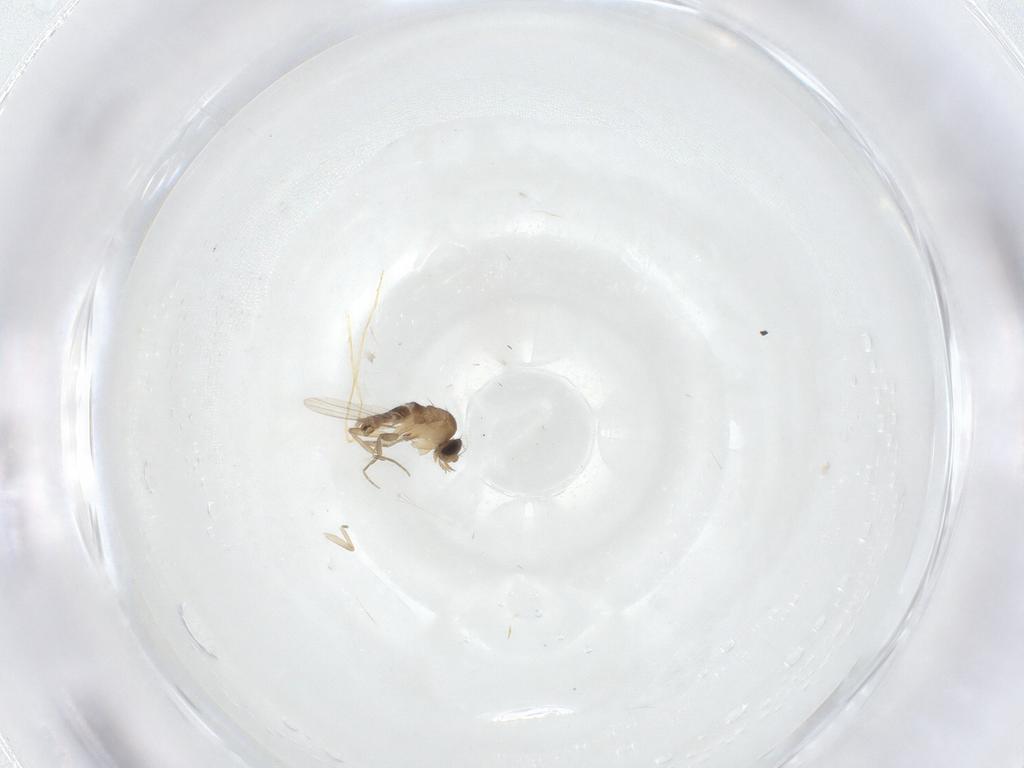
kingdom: Animalia
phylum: Arthropoda
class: Insecta
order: Diptera
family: Phoridae
